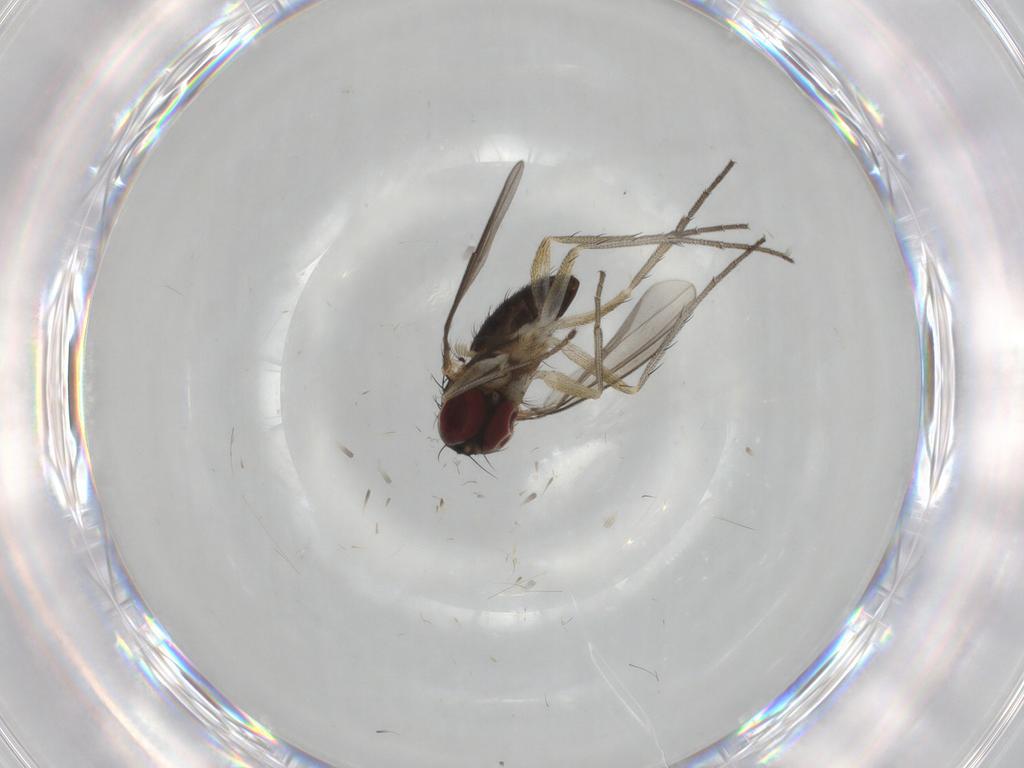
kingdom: Animalia
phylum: Arthropoda
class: Insecta
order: Diptera
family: Dolichopodidae
